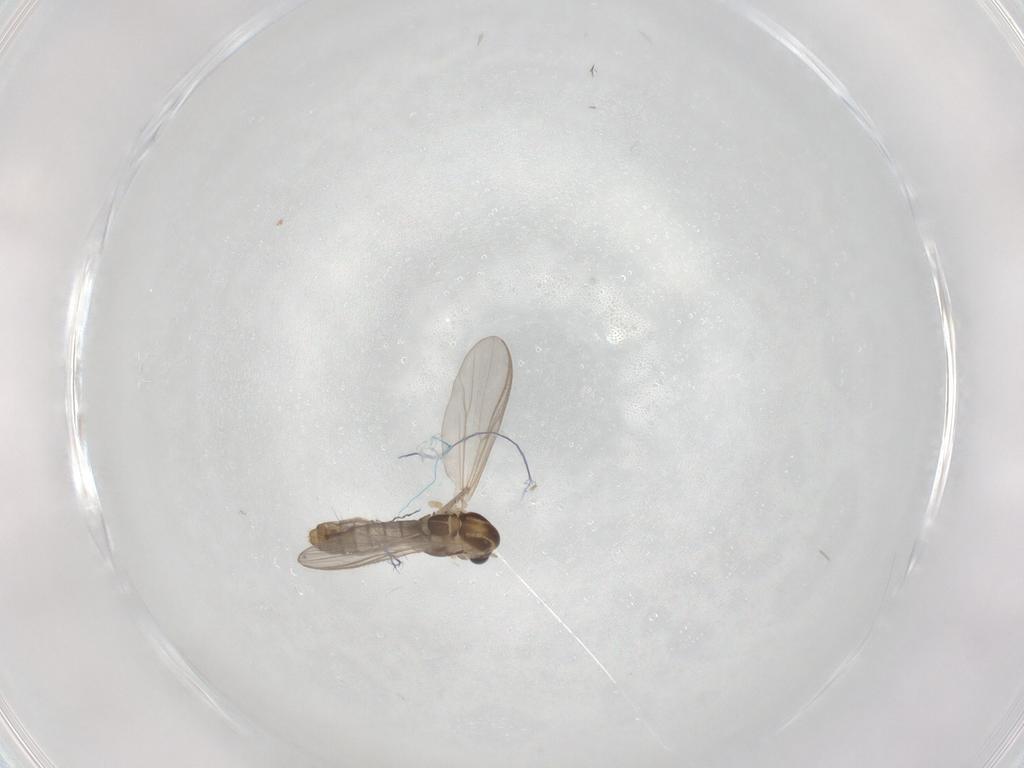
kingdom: Animalia
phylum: Arthropoda
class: Insecta
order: Diptera
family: Chironomidae
